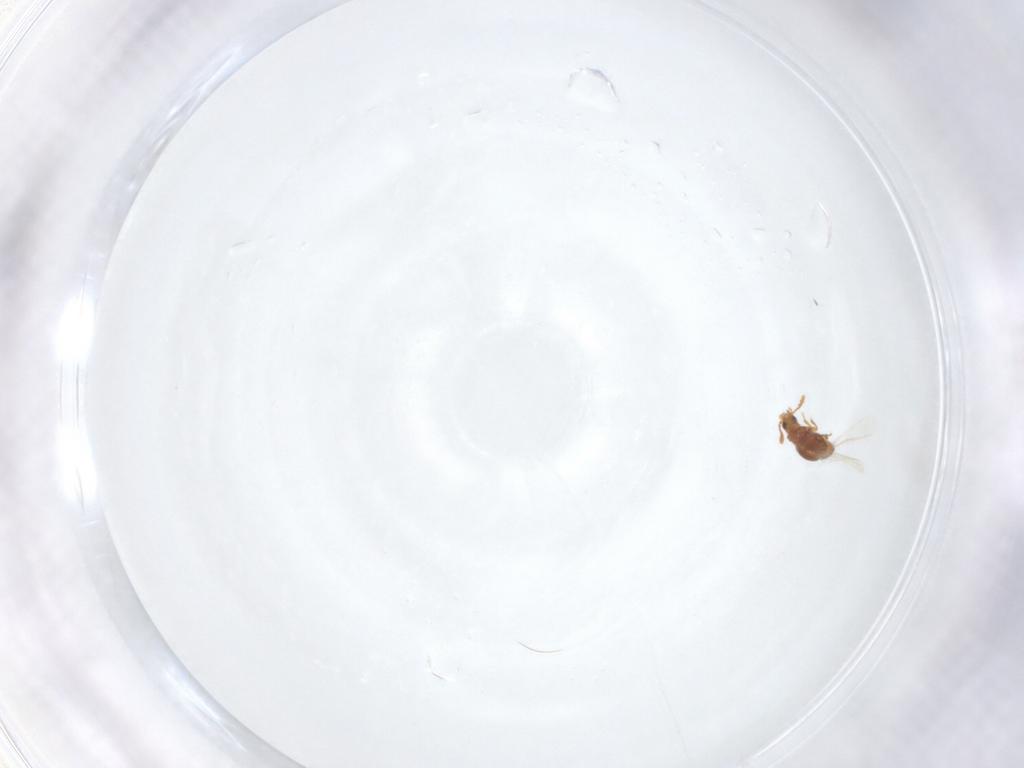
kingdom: Animalia
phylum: Arthropoda
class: Insecta
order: Coleoptera
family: Staphylinidae
